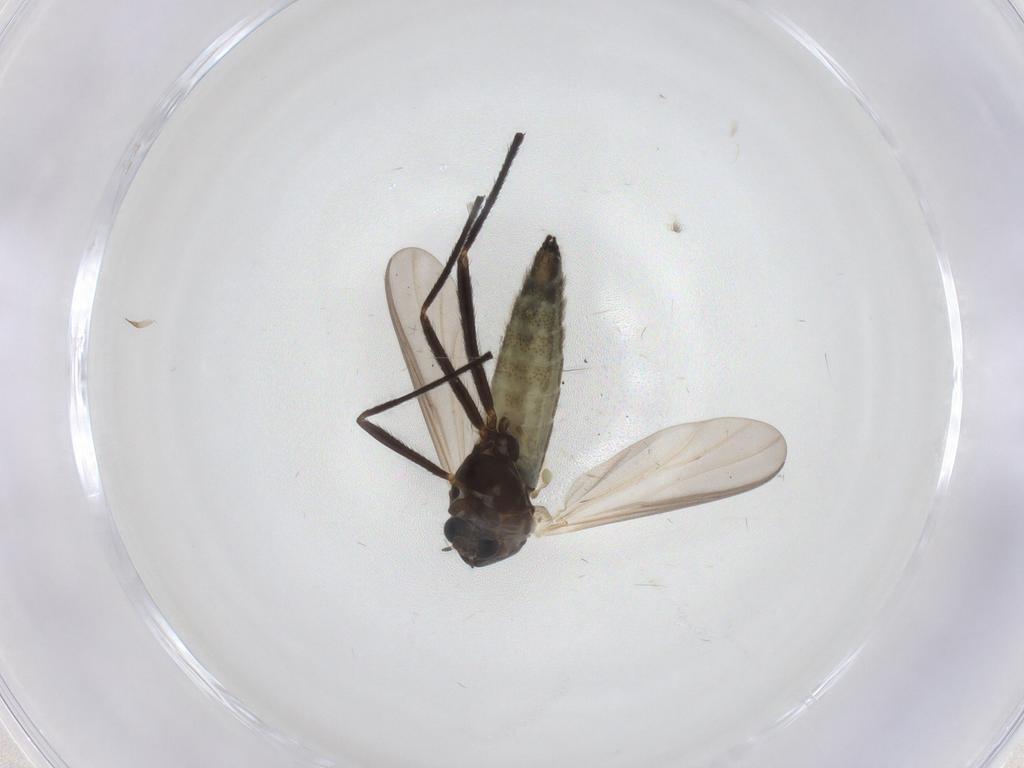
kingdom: Animalia
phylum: Arthropoda
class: Insecta
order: Diptera
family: Chironomidae
